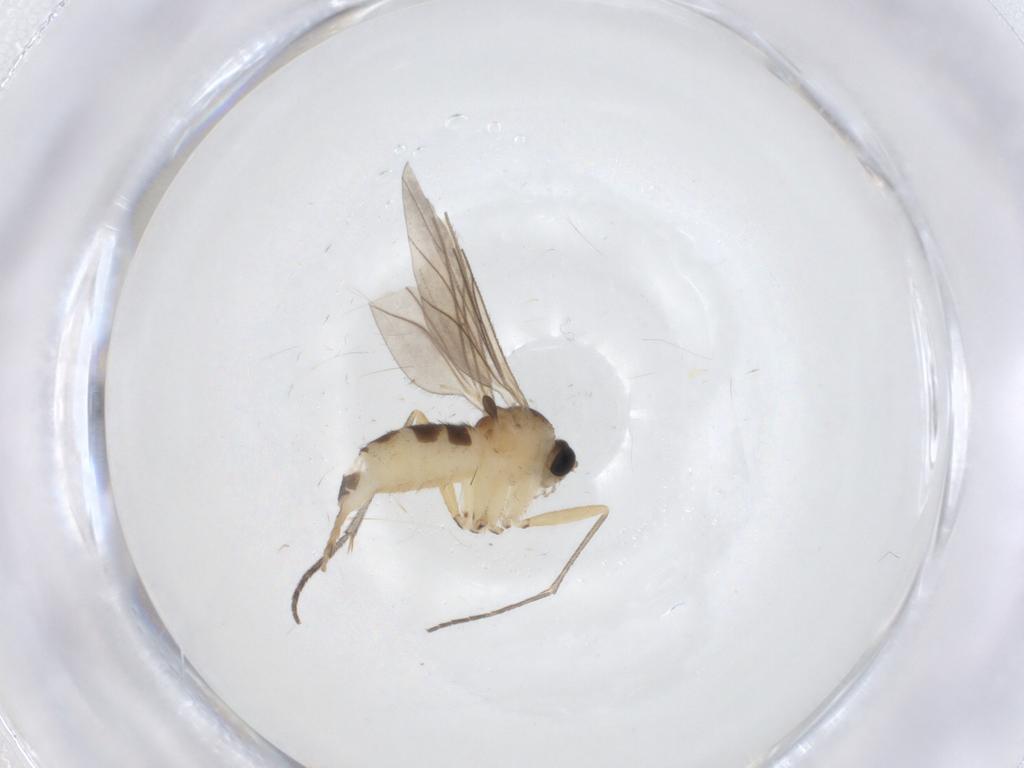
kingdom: Animalia
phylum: Arthropoda
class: Insecta
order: Diptera
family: Sciaridae
